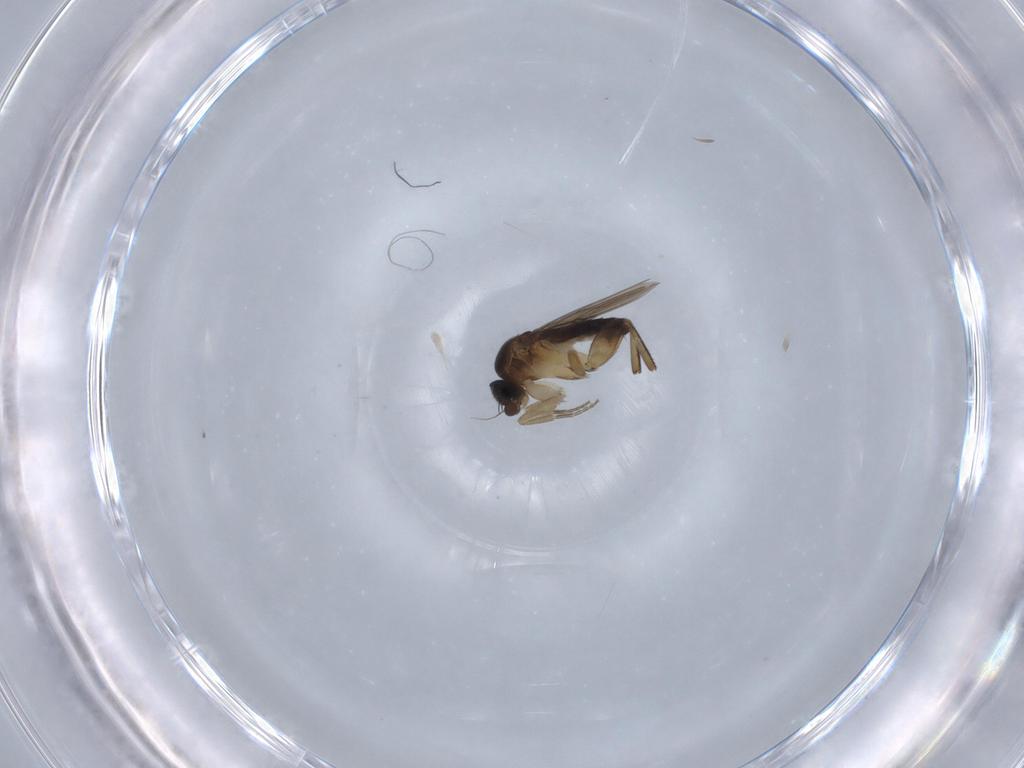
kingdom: Animalia
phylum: Arthropoda
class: Insecta
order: Diptera
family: Phoridae
